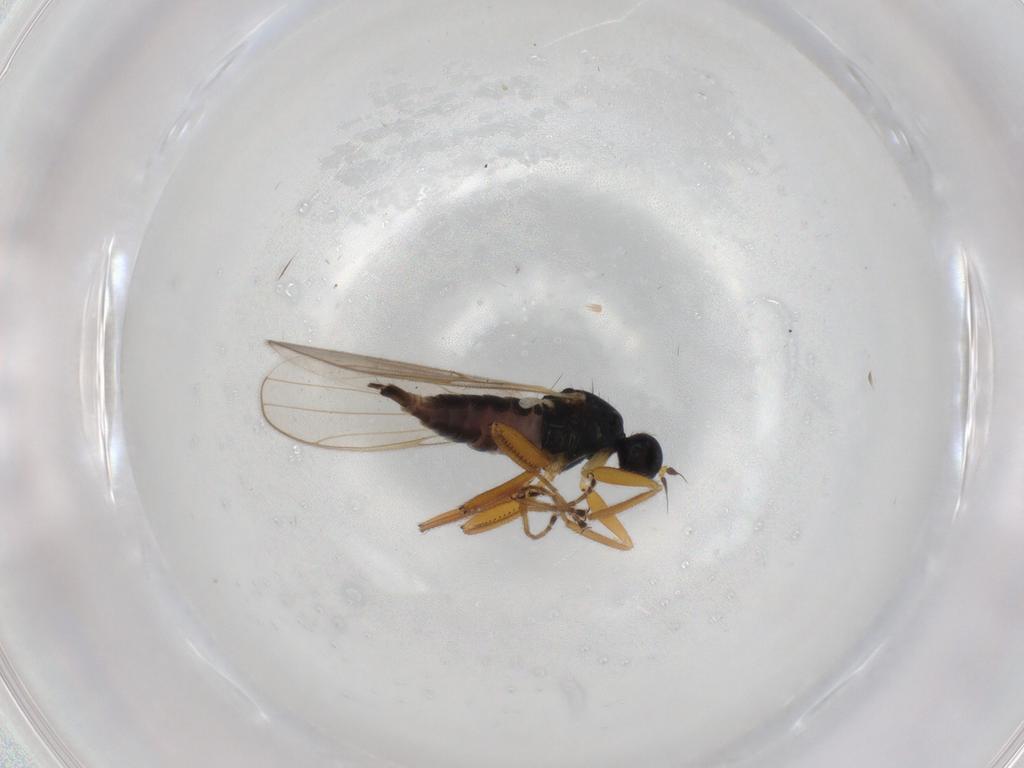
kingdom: Animalia
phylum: Arthropoda
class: Insecta
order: Diptera
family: Hybotidae
